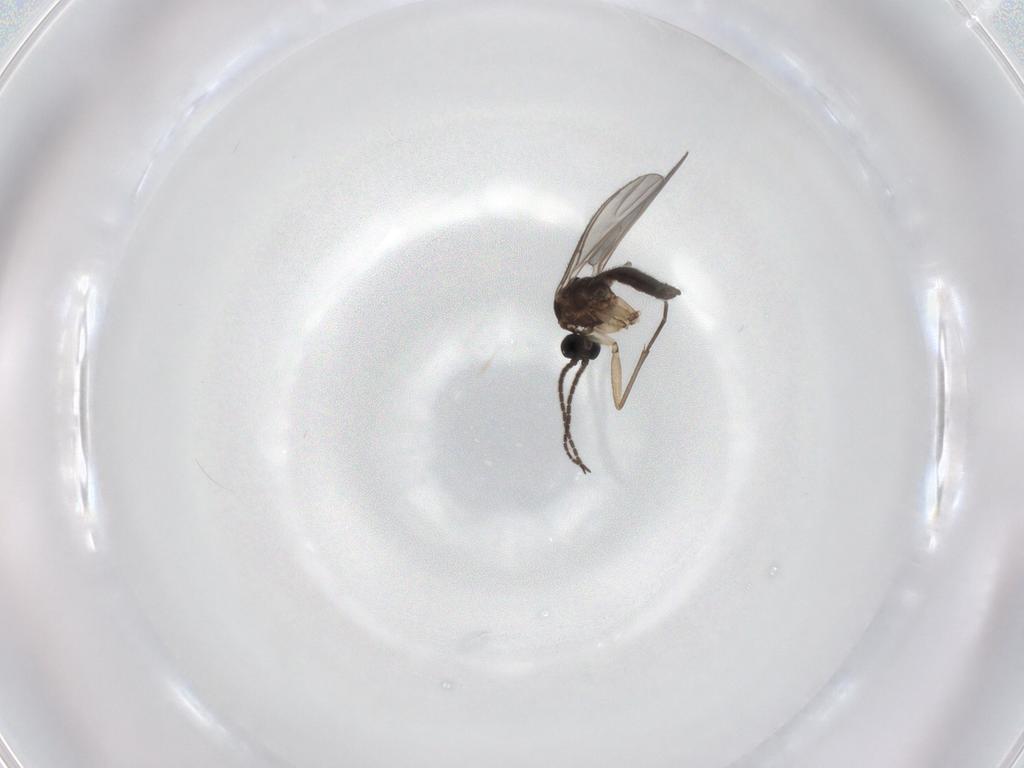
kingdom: Animalia
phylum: Arthropoda
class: Insecta
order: Diptera
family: Sciaridae
